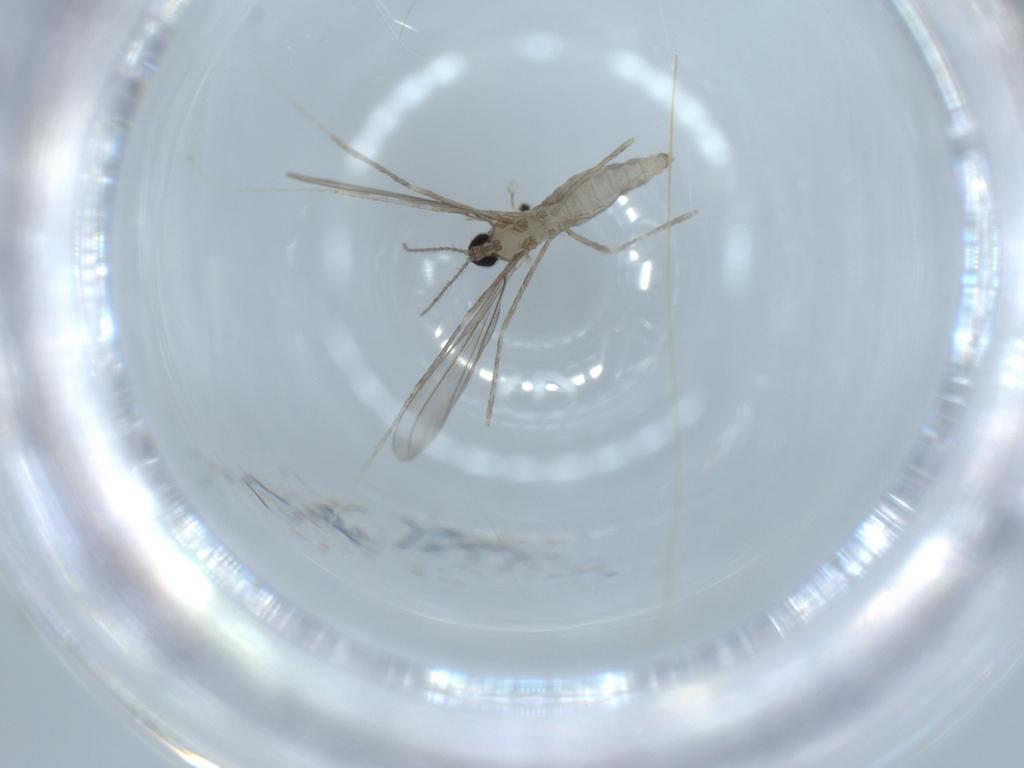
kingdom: Animalia
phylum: Arthropoda
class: Insecta
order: Diptera
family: Cecidomyiidae
